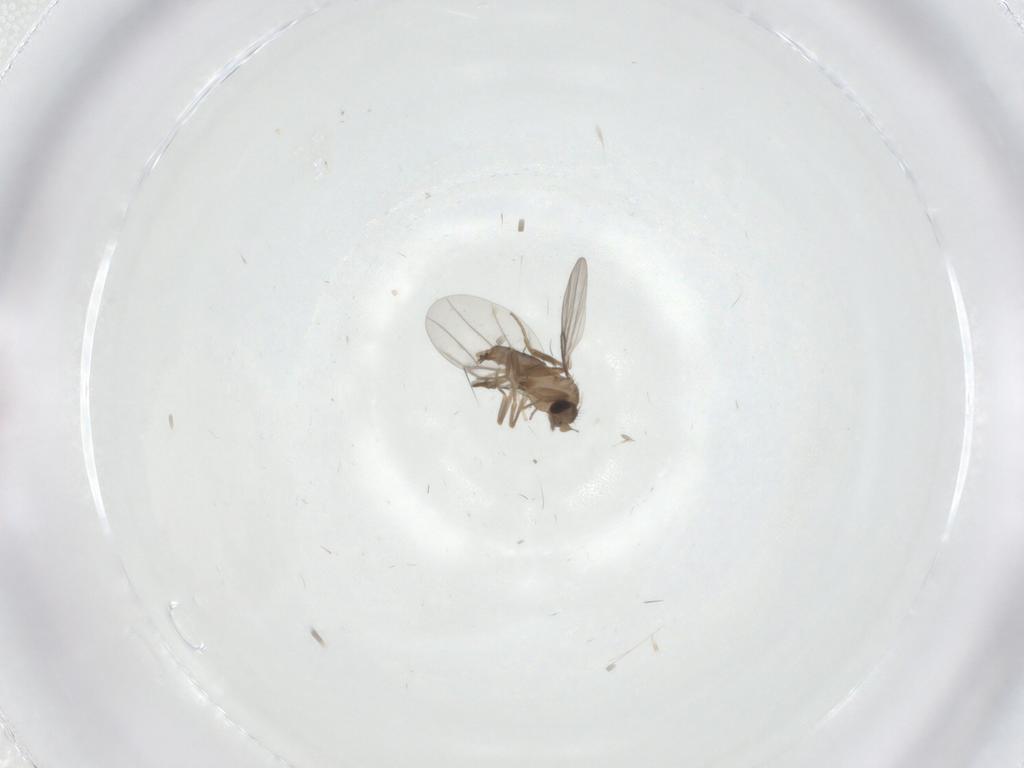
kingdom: Animalia
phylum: Arthropoda
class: Insecta
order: Diptera
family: Chironomidae
